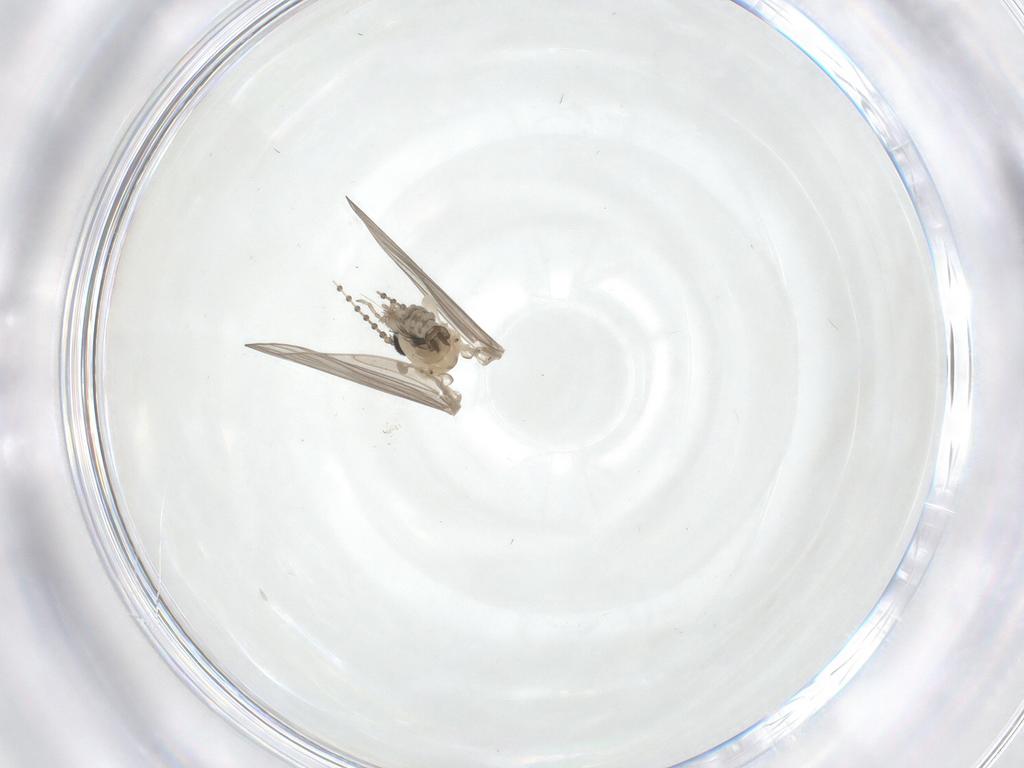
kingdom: Animalia
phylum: Arthropoda
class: Insecta
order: Diptera
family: Psychodidae
